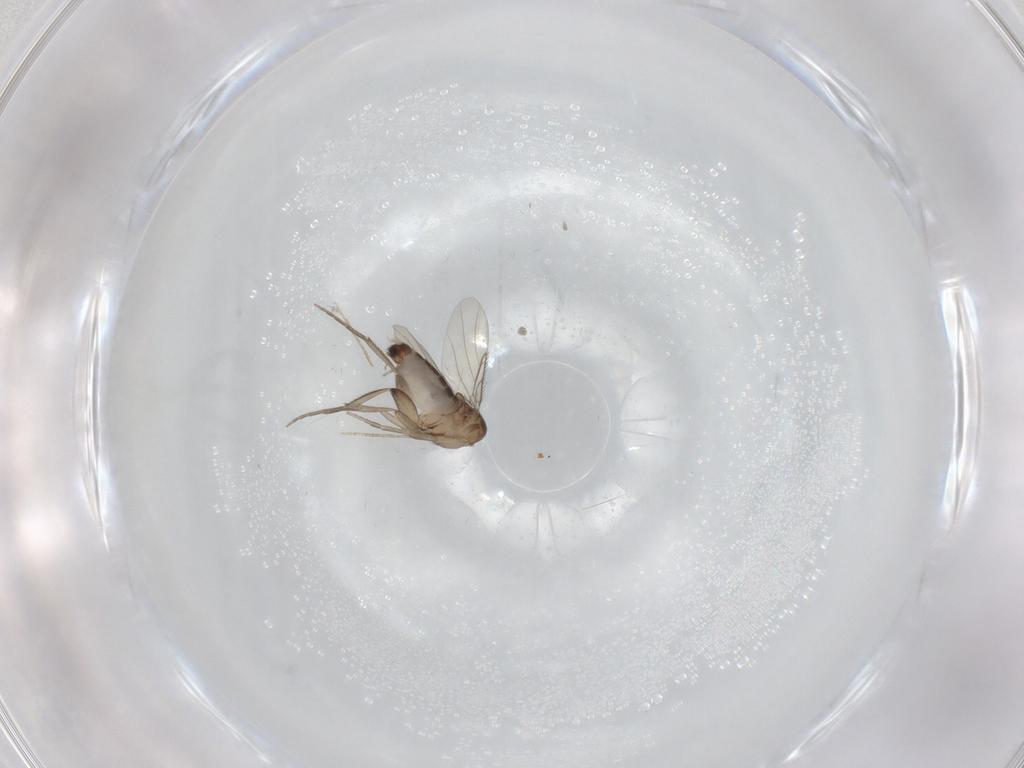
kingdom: Animalia
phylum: Arthropoda
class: Insecta
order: Diptera
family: Phoridae
